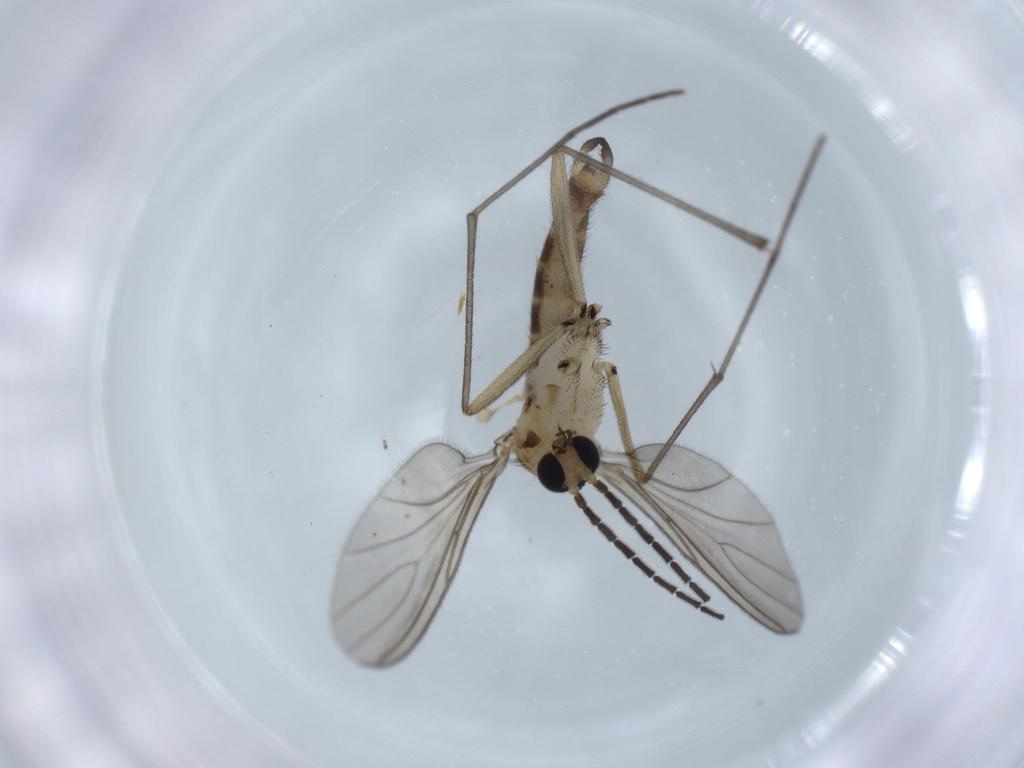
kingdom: Animalia
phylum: Arthropoda
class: Insecta
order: Diptera
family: Sciaridae
